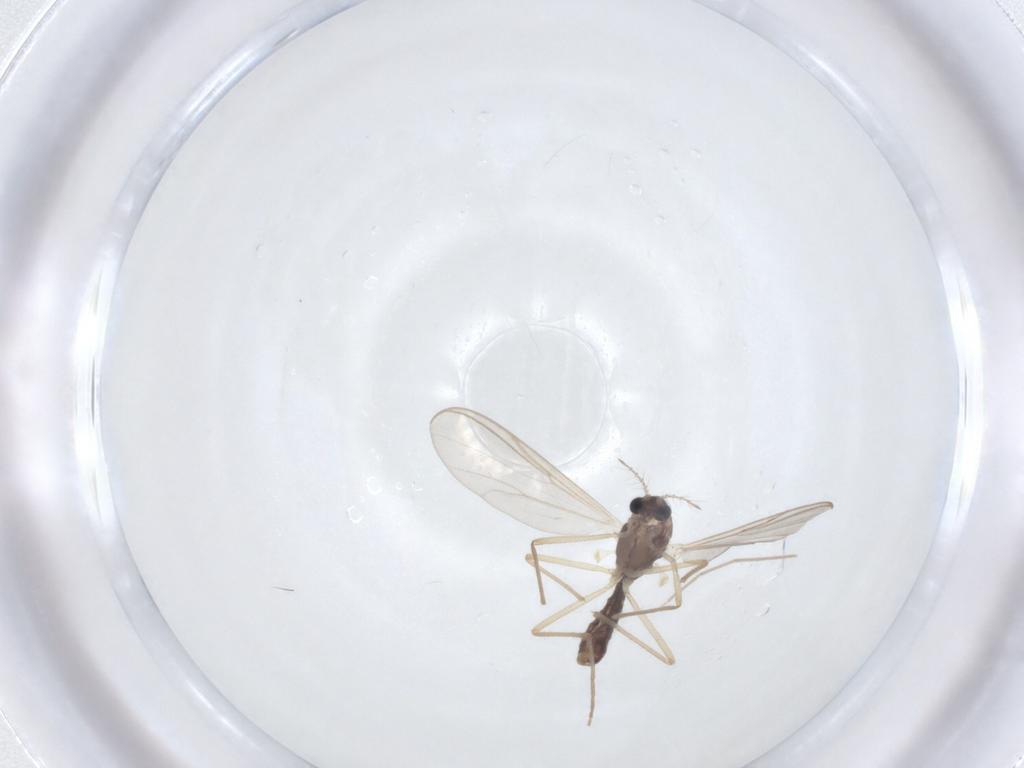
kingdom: Animalia
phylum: Arthropoda
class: Insecta
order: Diptera
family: Chironomidae
